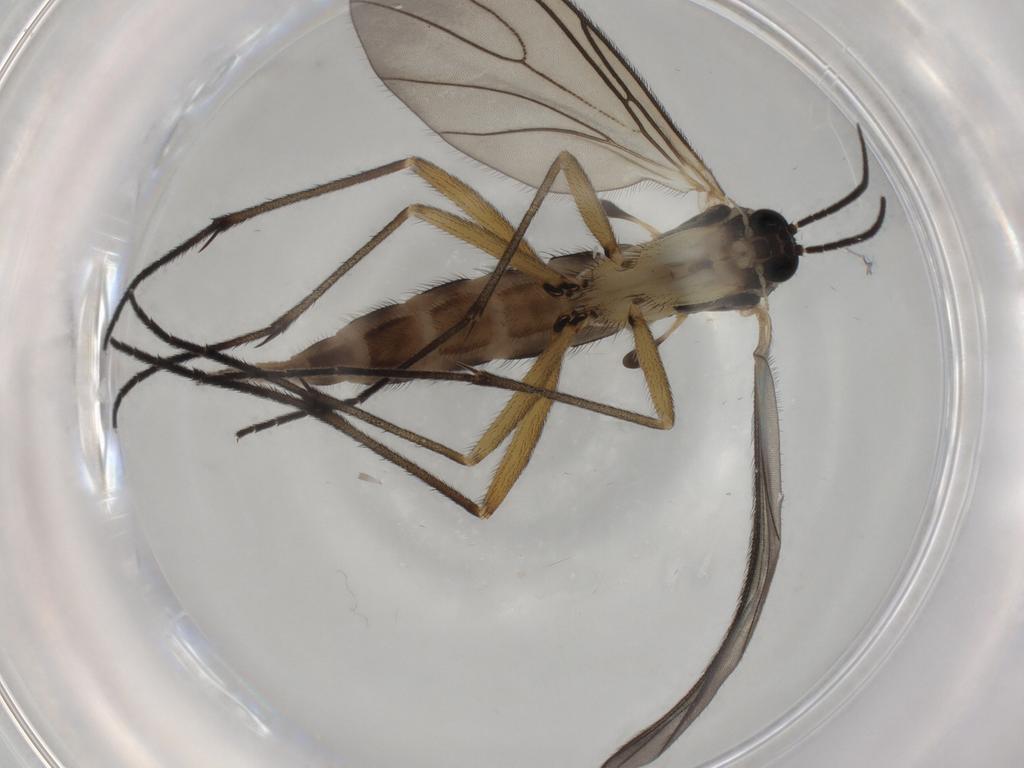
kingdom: Animalia
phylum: Arthropoda
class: Insecta
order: Diptera
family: Sciaridae
